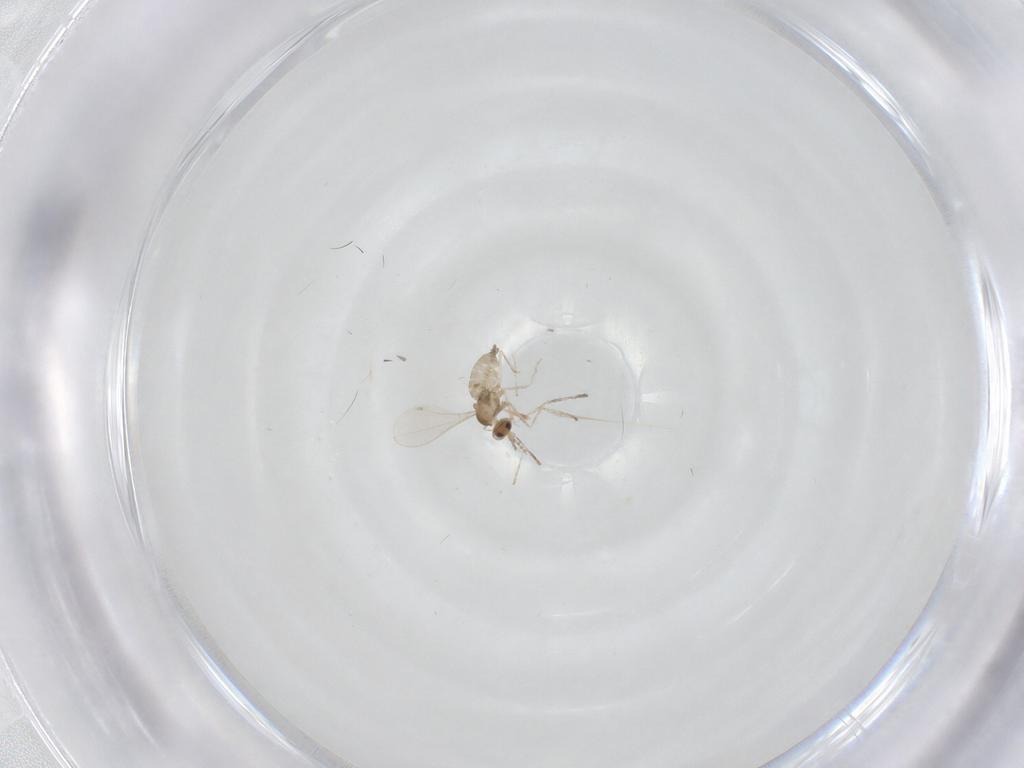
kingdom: Animalia
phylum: Arthropoda
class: Insecta
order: Diptera
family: Cecidomyiidae
